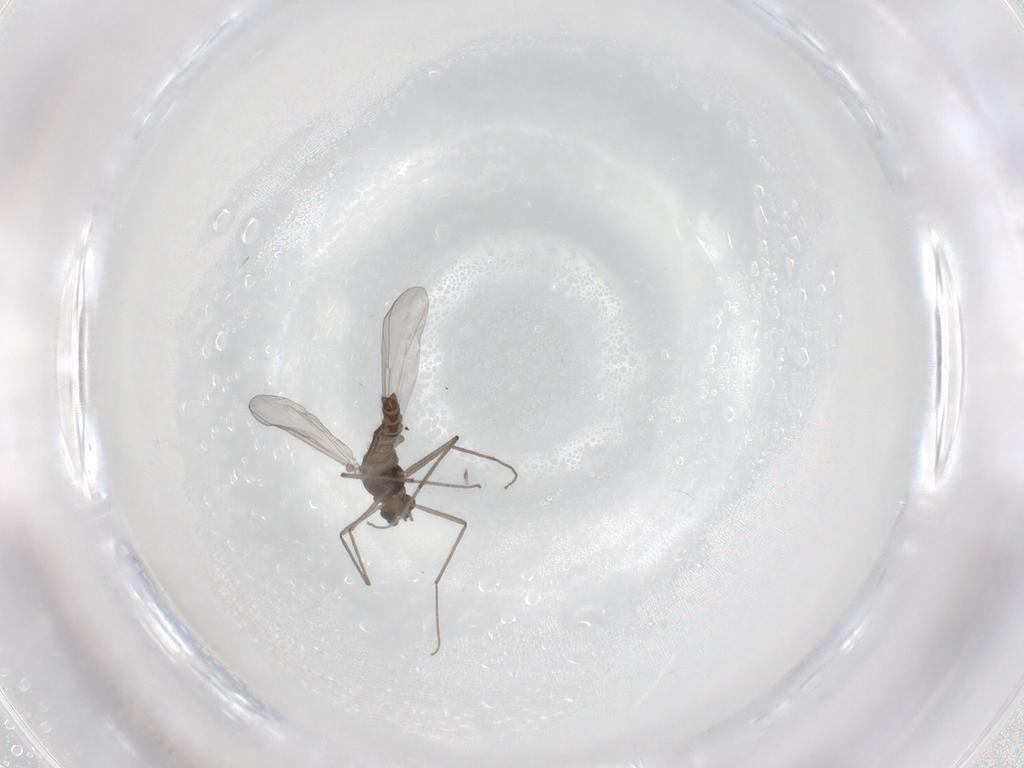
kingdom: Animalia
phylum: Arthropoda
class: Insecta
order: Diptera
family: Chironomidae
